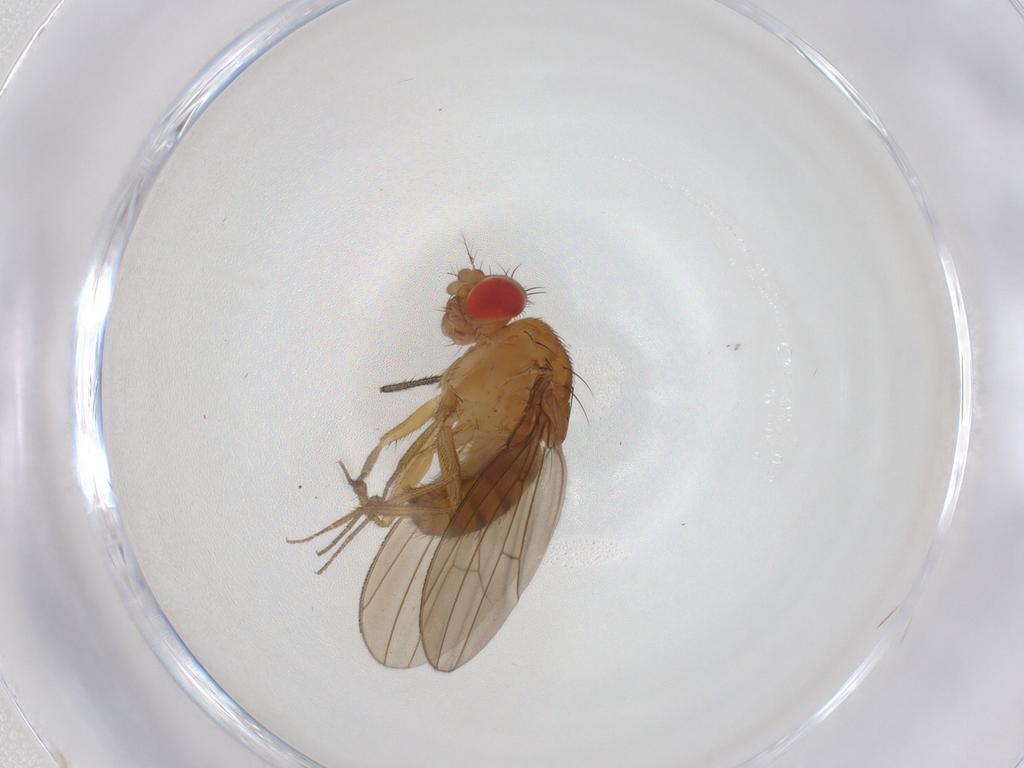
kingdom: Animalia
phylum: Arthropoda
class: Insecta
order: Diptera
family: Drosophilidae
